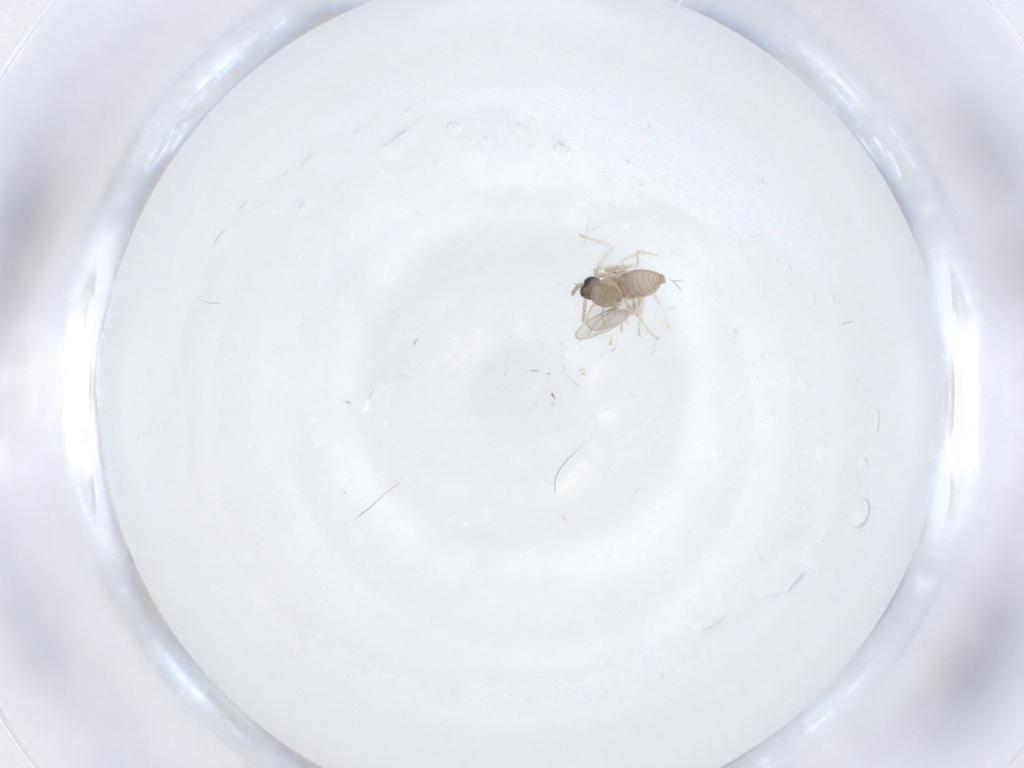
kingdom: Animalia
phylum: Arthropoda
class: Insecta
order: Diptera
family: Cecidomyiidae
